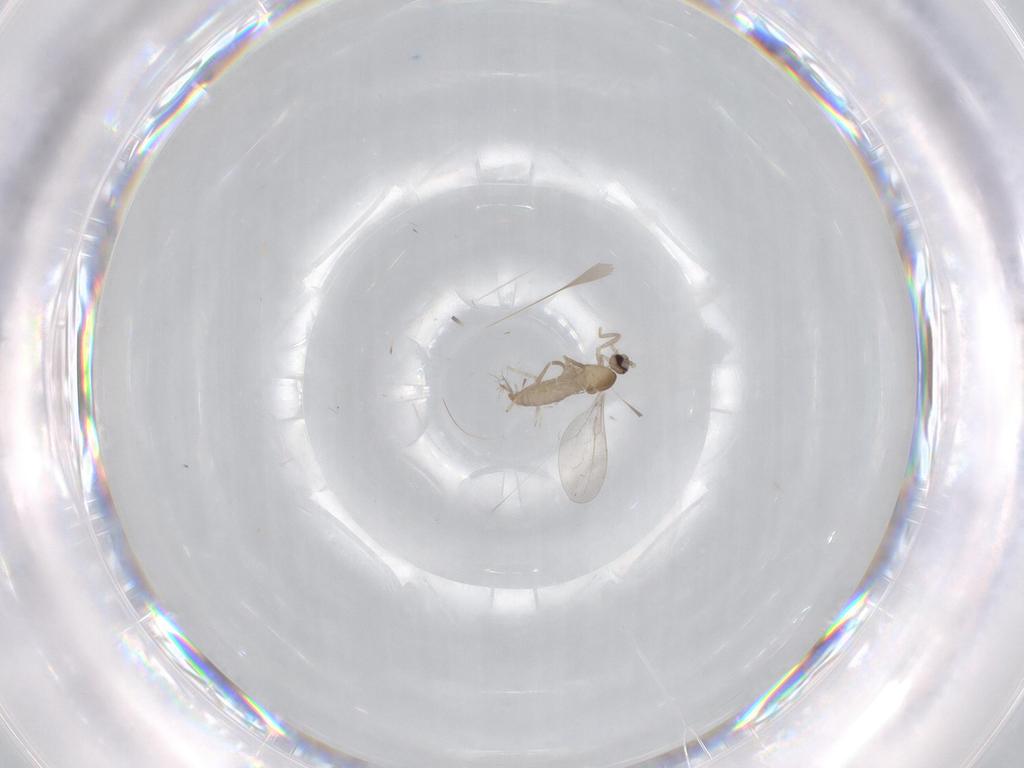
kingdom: Animalia
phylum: Arthropoda
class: Insecta
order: Diptera
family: Cecidomyiidae
